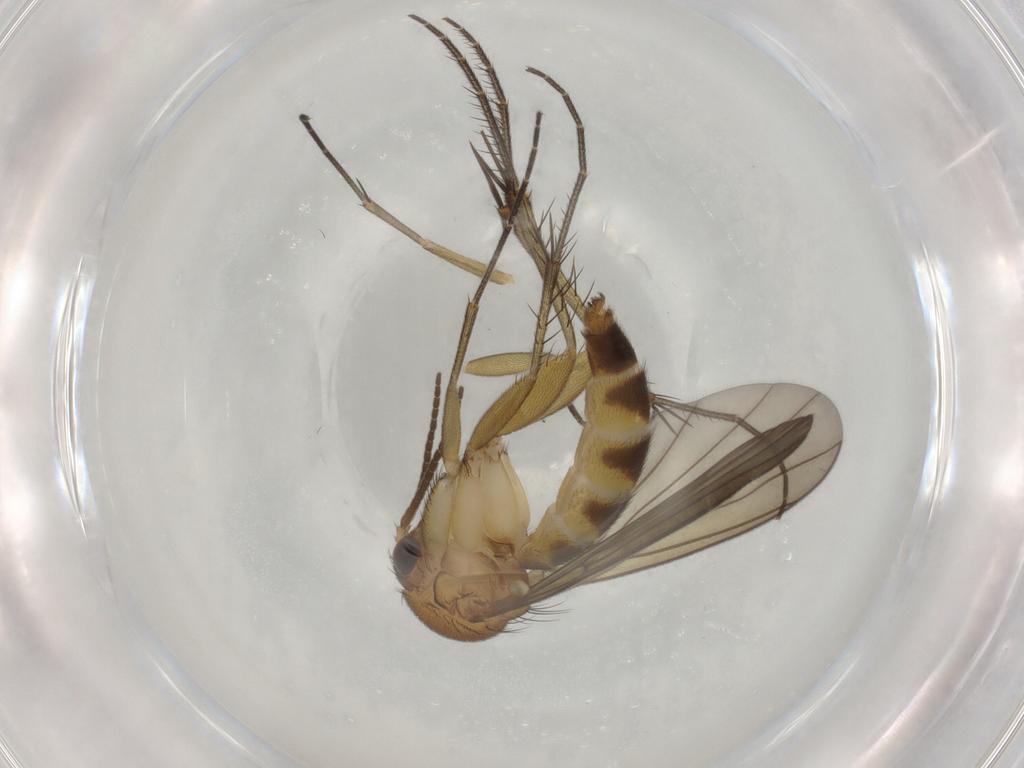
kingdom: Animalia
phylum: Arthropoda
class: Insecta
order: Diptera
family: Mycetophilidae
